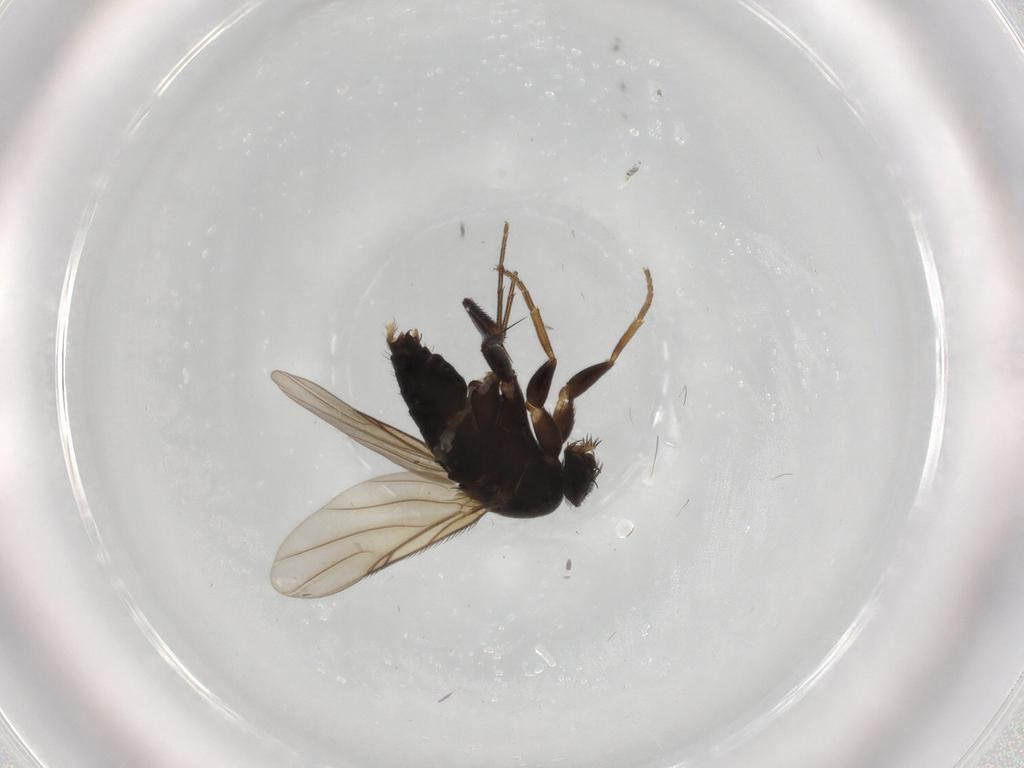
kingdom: Animalia
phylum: Arthropoda
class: Insecta
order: Diptera
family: Phoridae
